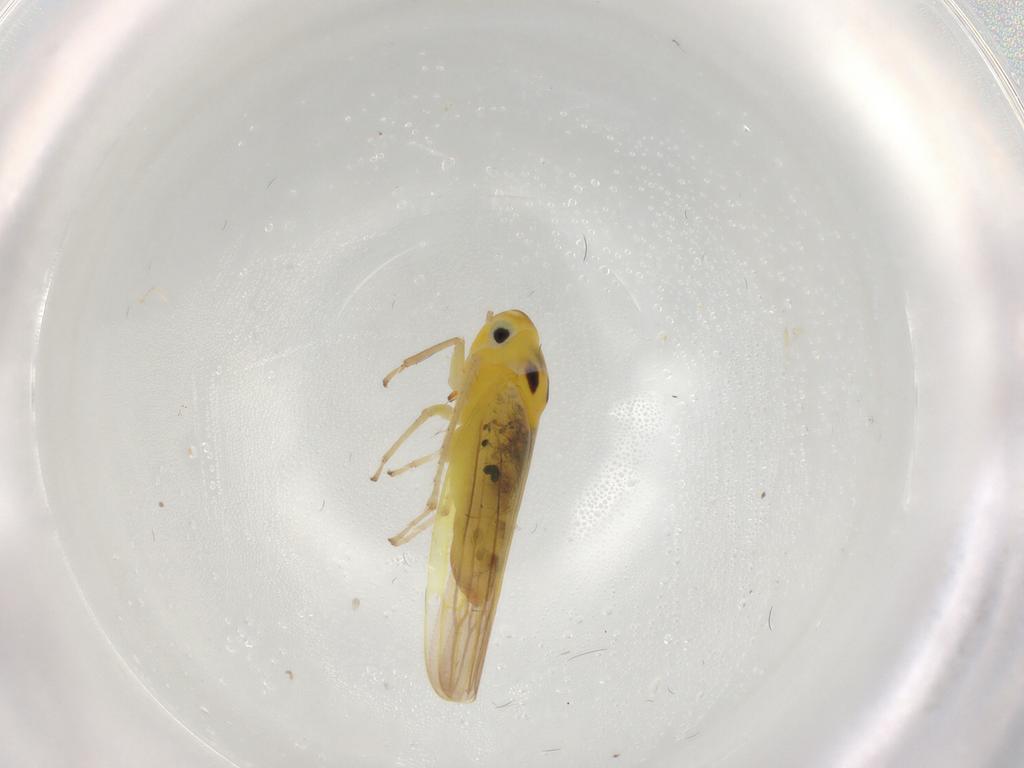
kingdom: Animalia
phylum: Arthropoda
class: Insecta
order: Hemiptera
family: Cicadellidae
